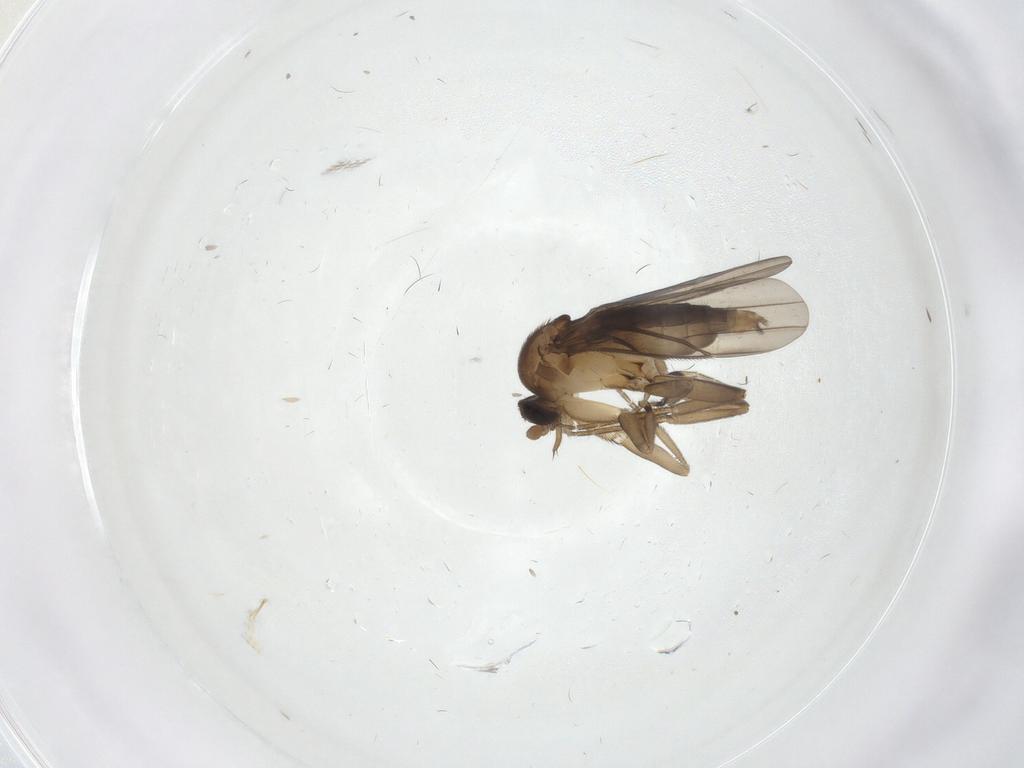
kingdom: Animalia
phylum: Arthropoda
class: Insecta
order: Diptera
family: Chironomidae
